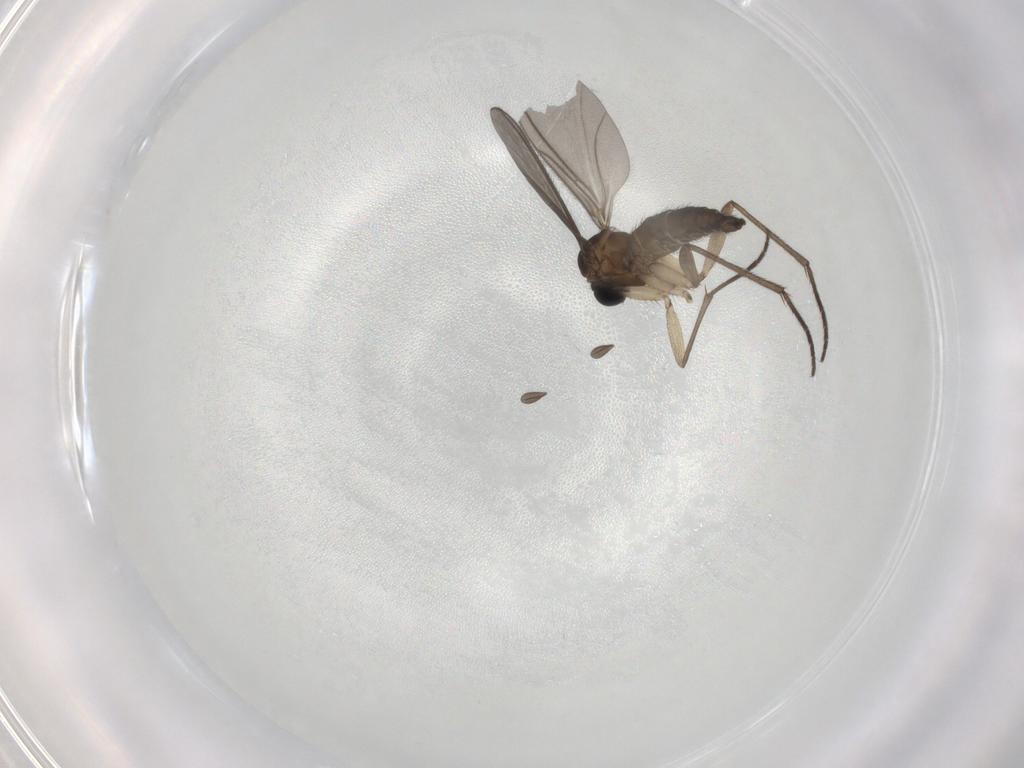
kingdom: Animalia
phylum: Arthropoda
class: Insecta
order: Diptera
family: Sciaridae
